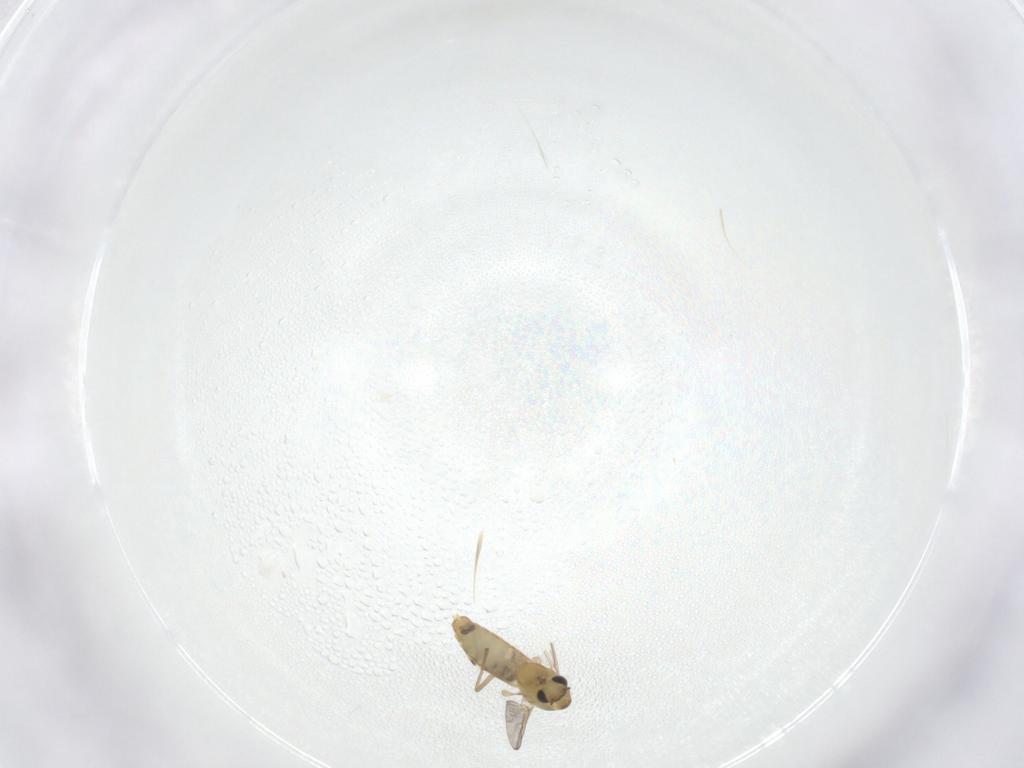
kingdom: Animalia
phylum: Arthropoda
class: Insecta
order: Diptera
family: Chironomidae
